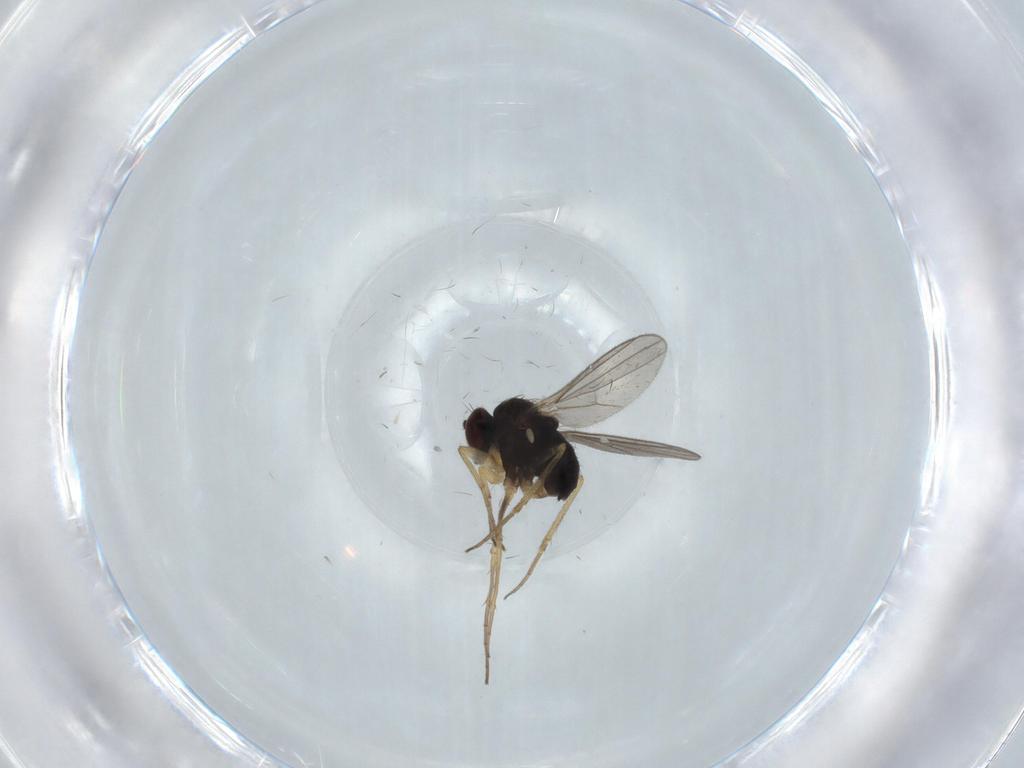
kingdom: Animalia
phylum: Arthropoda
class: Insecta
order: Diptera
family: Dolichopodidae
